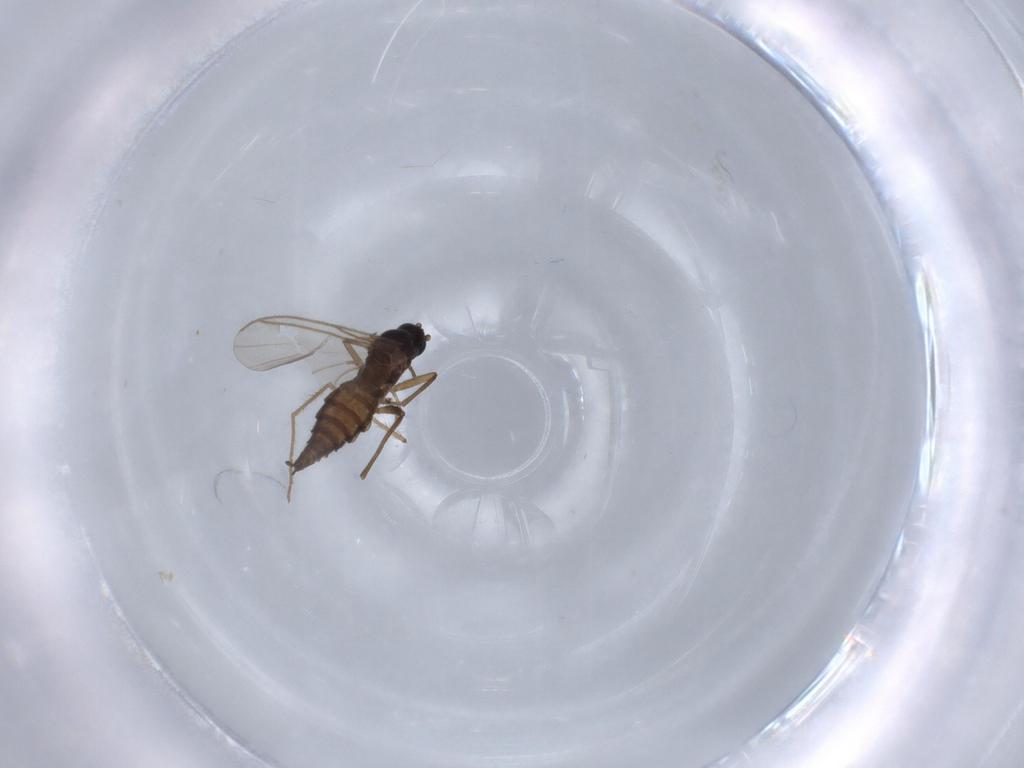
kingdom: Animalia
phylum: Arthropoda
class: Insecta
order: Diptera
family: Sciaridae
